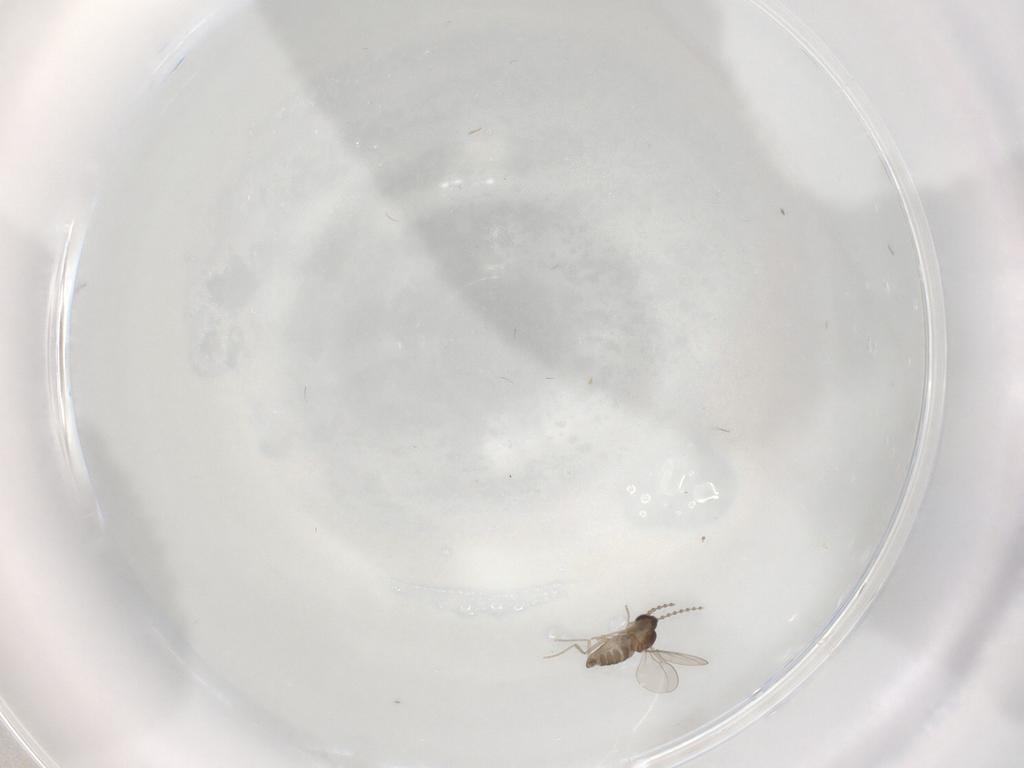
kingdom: Animalia
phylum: Arthropoda
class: Insecta
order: Diptera
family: Cecidomyiidae
